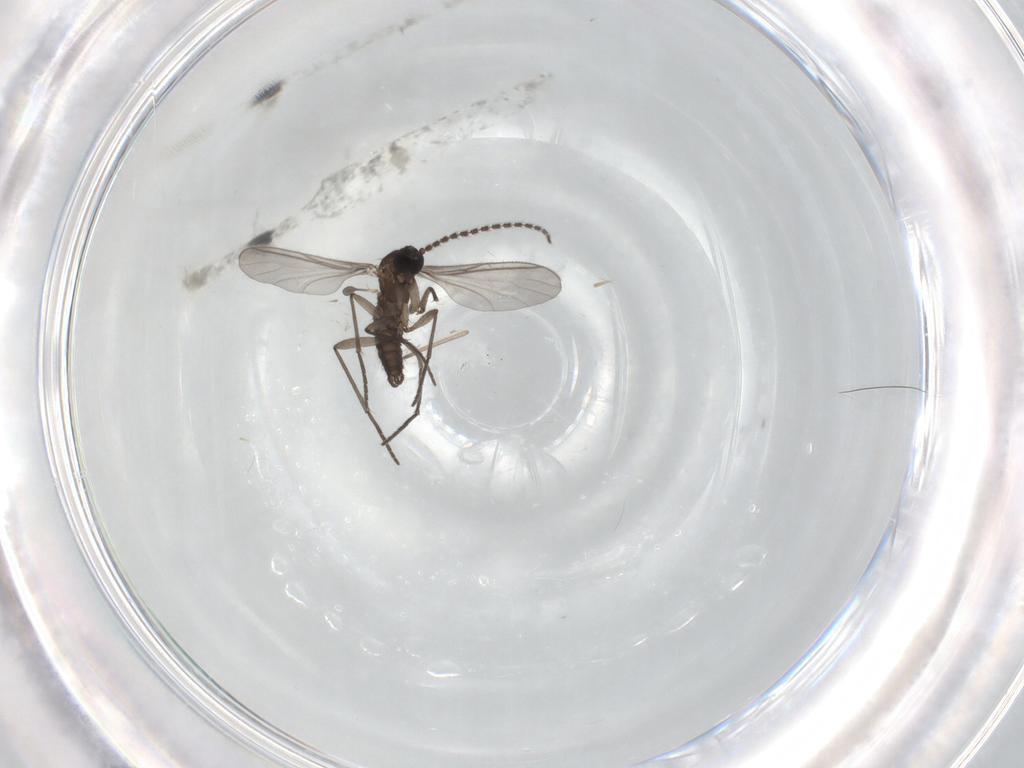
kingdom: Animalia
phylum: Arthropoda
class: Insecta
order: Diptera
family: Chironomidae
